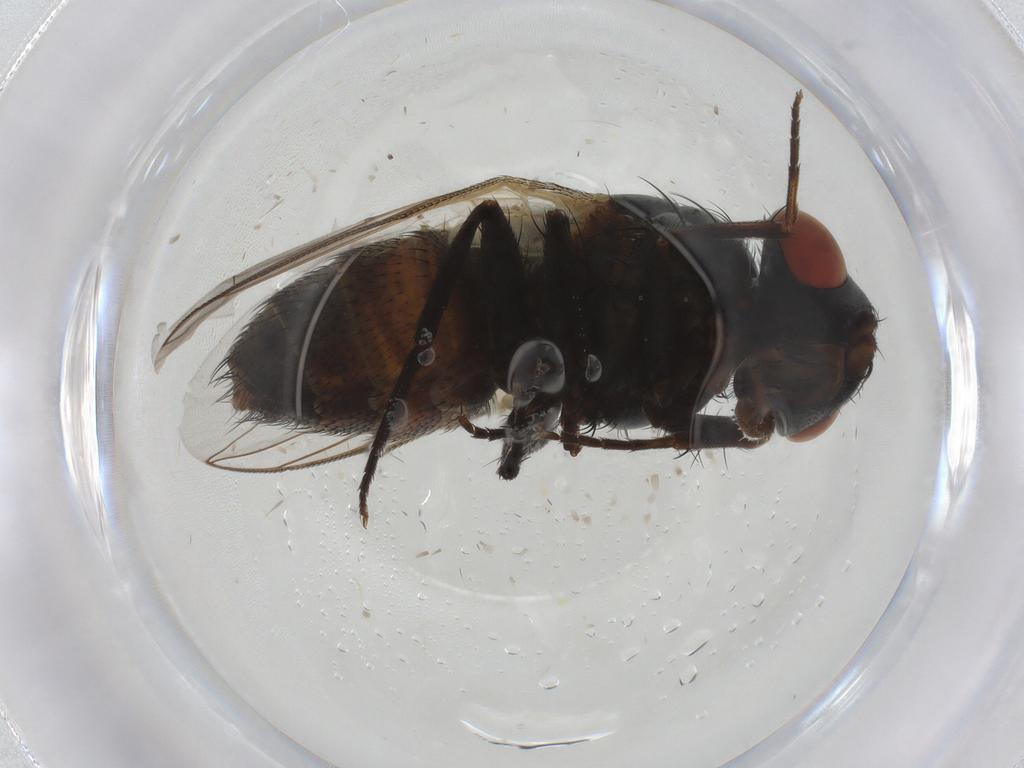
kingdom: Animalia
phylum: Arthropoda
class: Insecta
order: Diptera
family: Sarcophagidae
